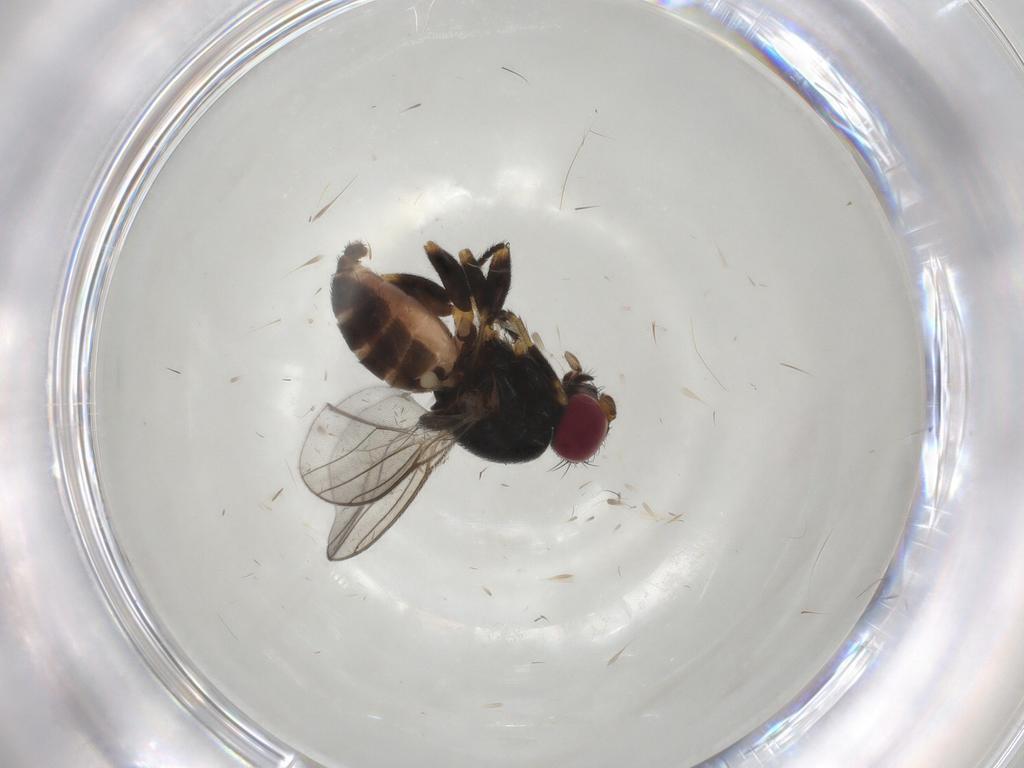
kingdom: Animalia
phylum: Arthropoda
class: Insecta
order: Diptera
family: Chloropidae
